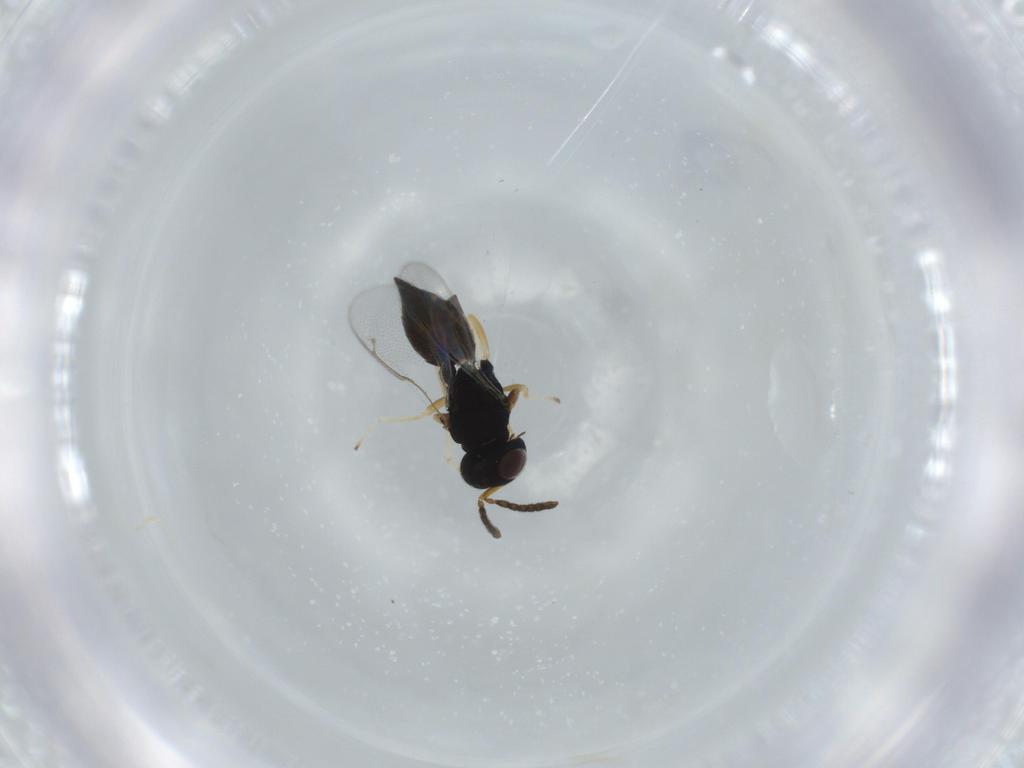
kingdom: Animalia
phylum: Arthropoda
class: Insecta
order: Hymenoptera
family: Pteromalidae
